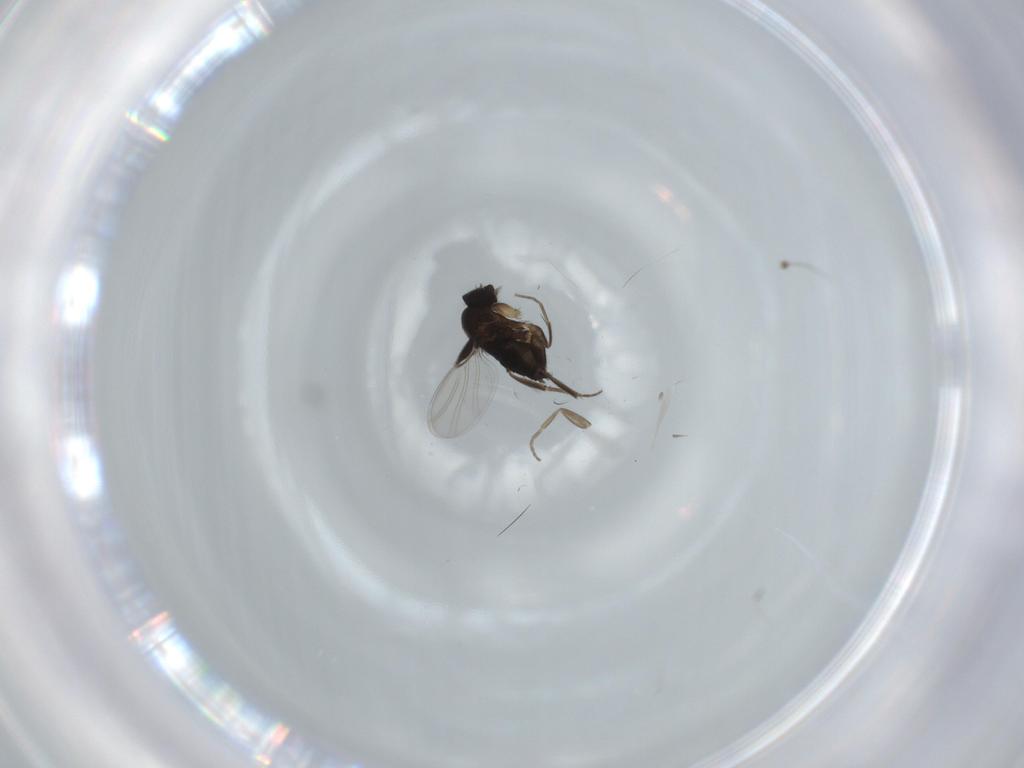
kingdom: Animalia
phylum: Arthropoda
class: Insecta
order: Diptera
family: Phoridae
